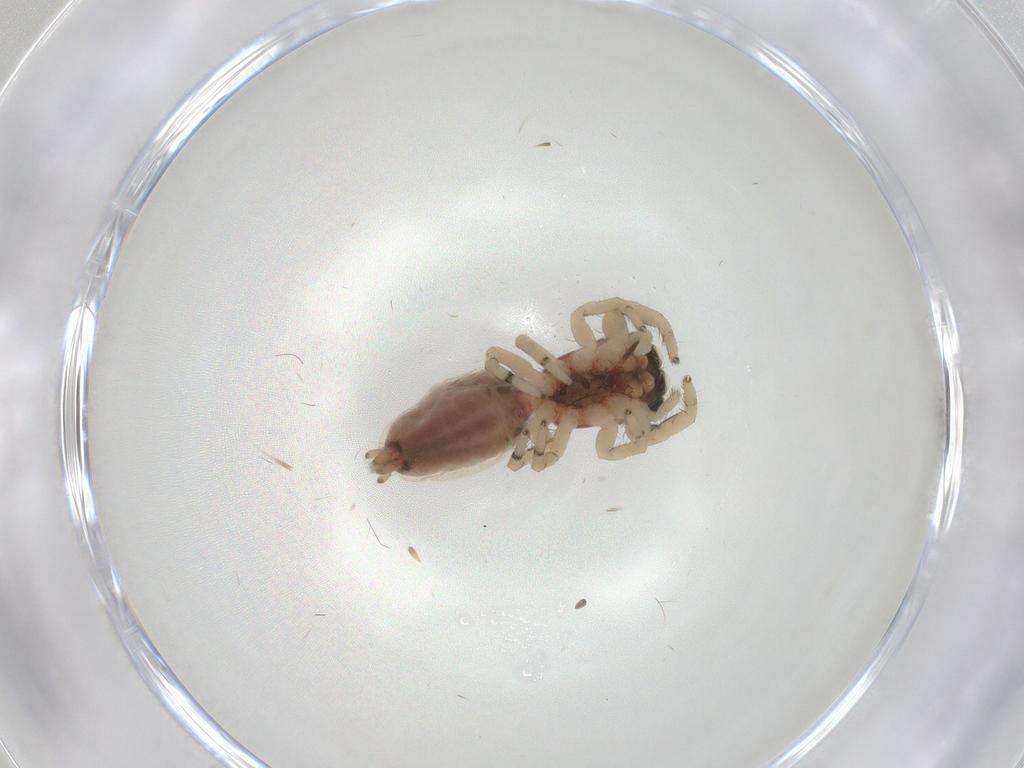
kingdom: Animalia
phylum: Arthropoda
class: Arachnida
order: Araneae
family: Salticidae
